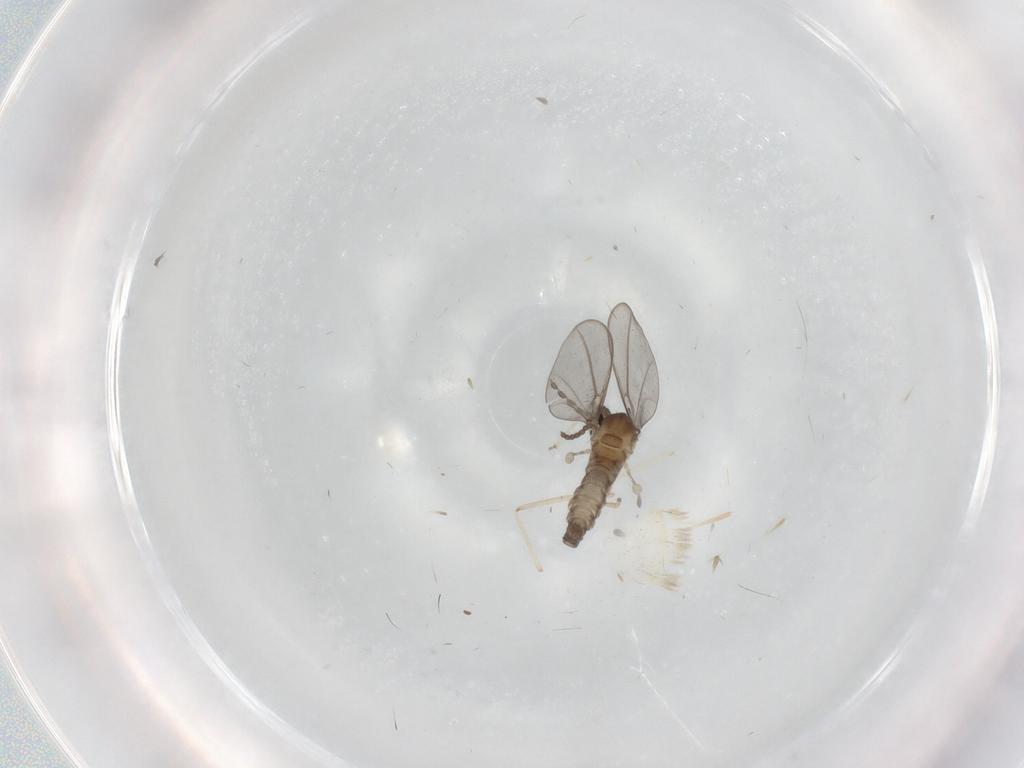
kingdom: Animalia
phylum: Arthropoda
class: Insecta
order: Diptera
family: Cecidomyiidae
